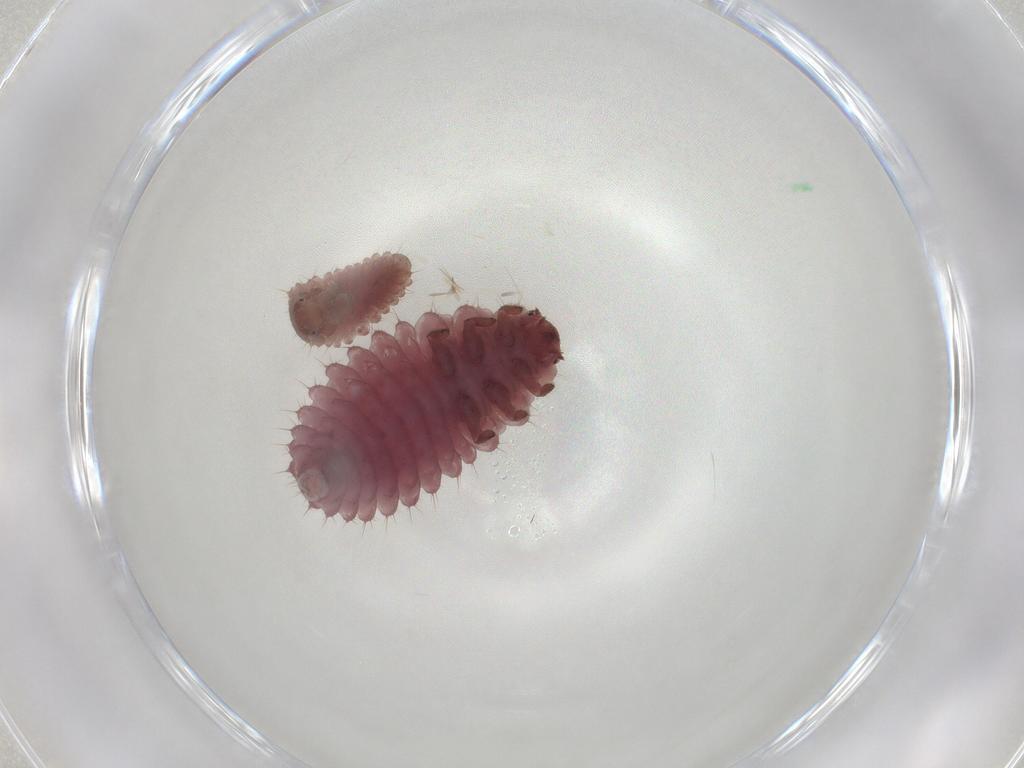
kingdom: Animalia
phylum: Arthropoda
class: Insecta
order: Coleoptera
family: Coccinellidae
